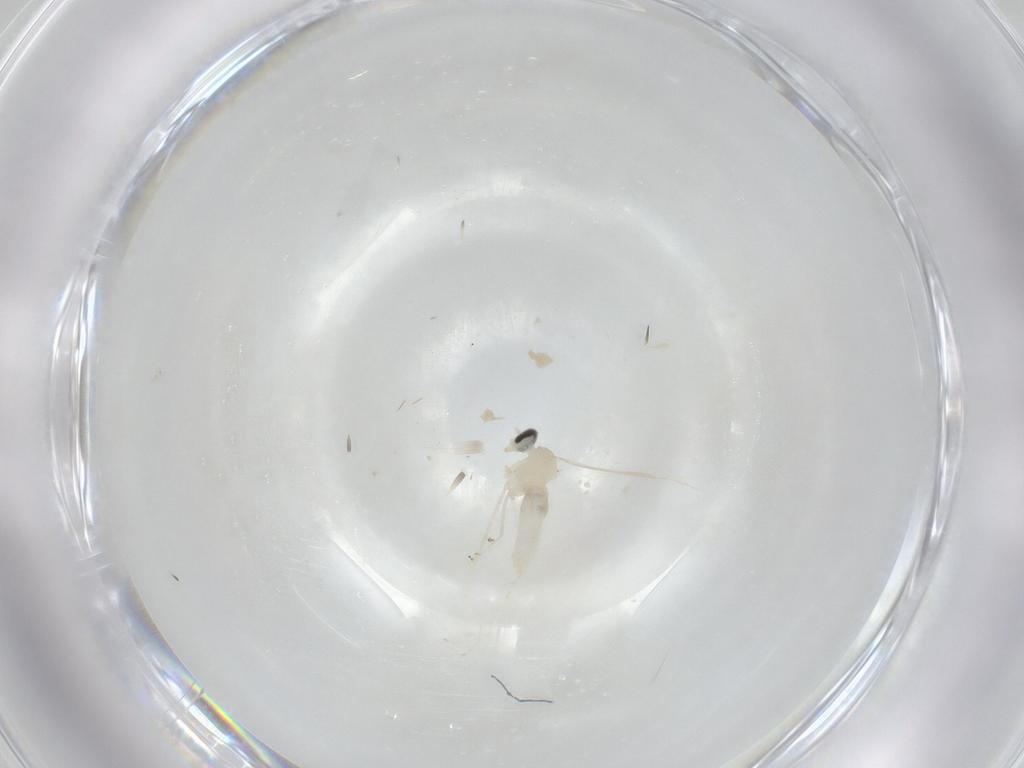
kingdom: Animalia
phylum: Arthropoda
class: Insecta
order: Diptera
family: Cecidomyiidae
